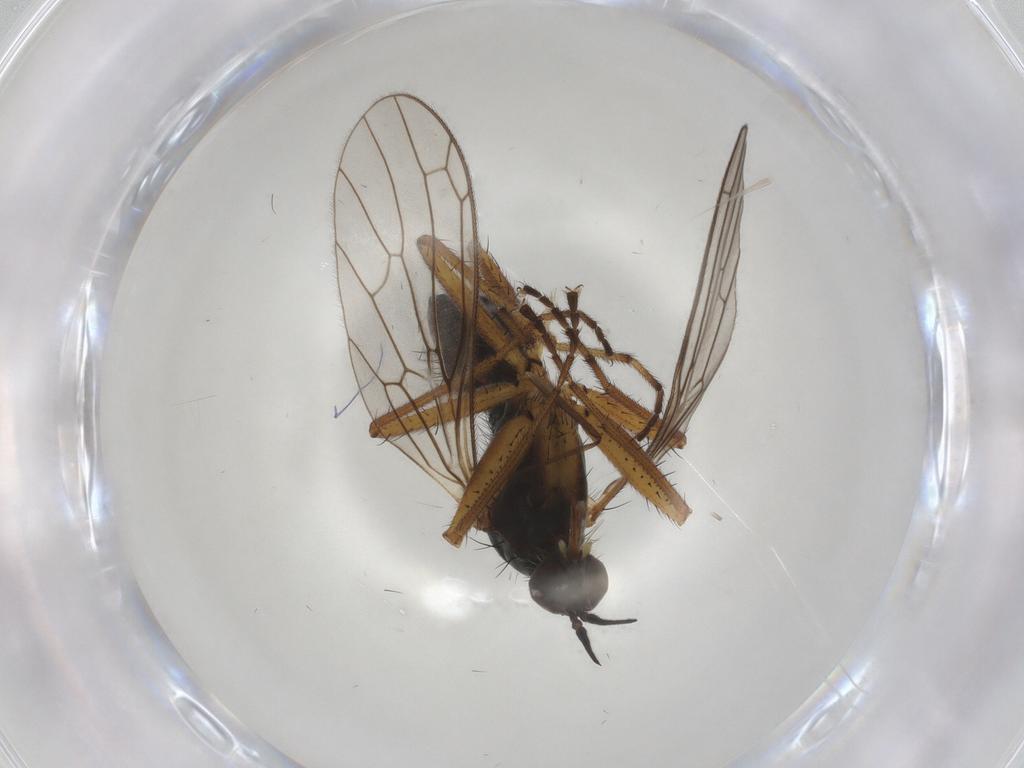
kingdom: Animalia
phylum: Arthropoda
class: Insecta
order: Diptera
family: Empididae
